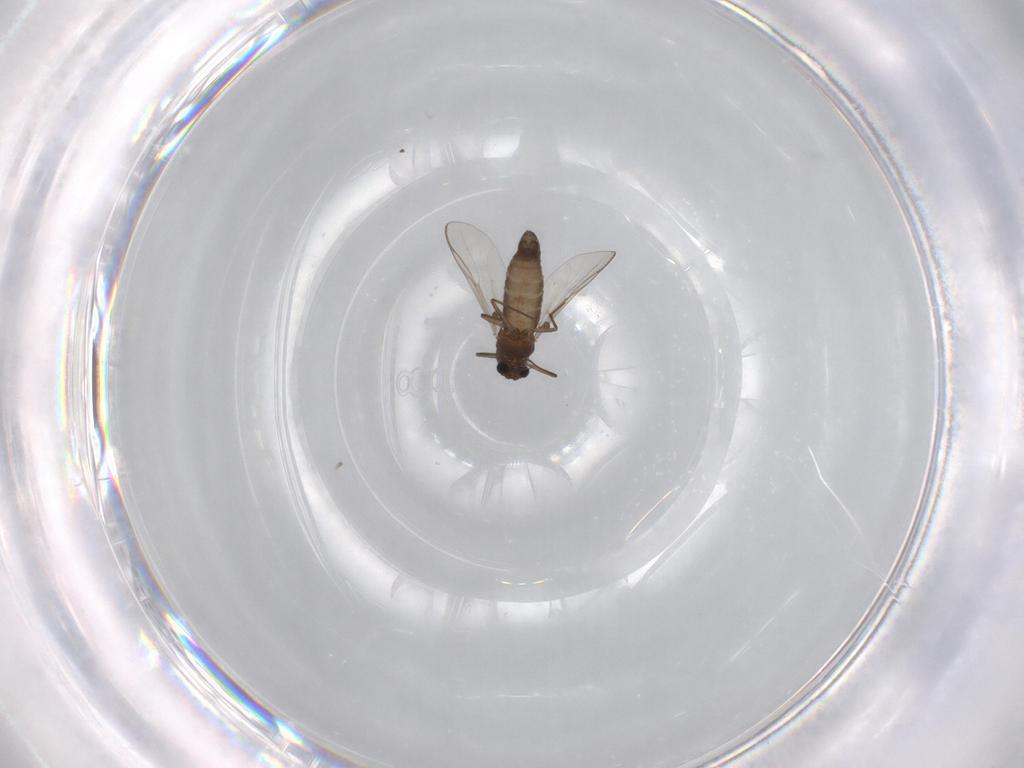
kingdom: Animalia
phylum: Arthropoda
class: Insecta
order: Diptera
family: Chironomidae
